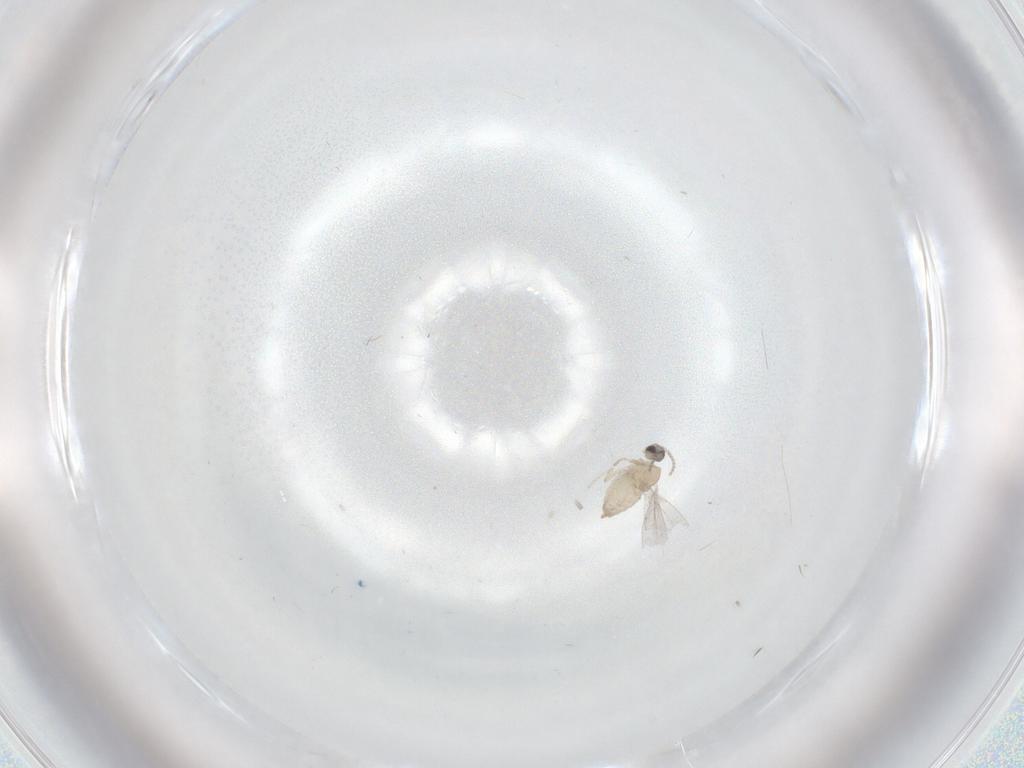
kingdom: Animalia
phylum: Arthropoda
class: Insecta
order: Diptera
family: Cecidomyiidae
